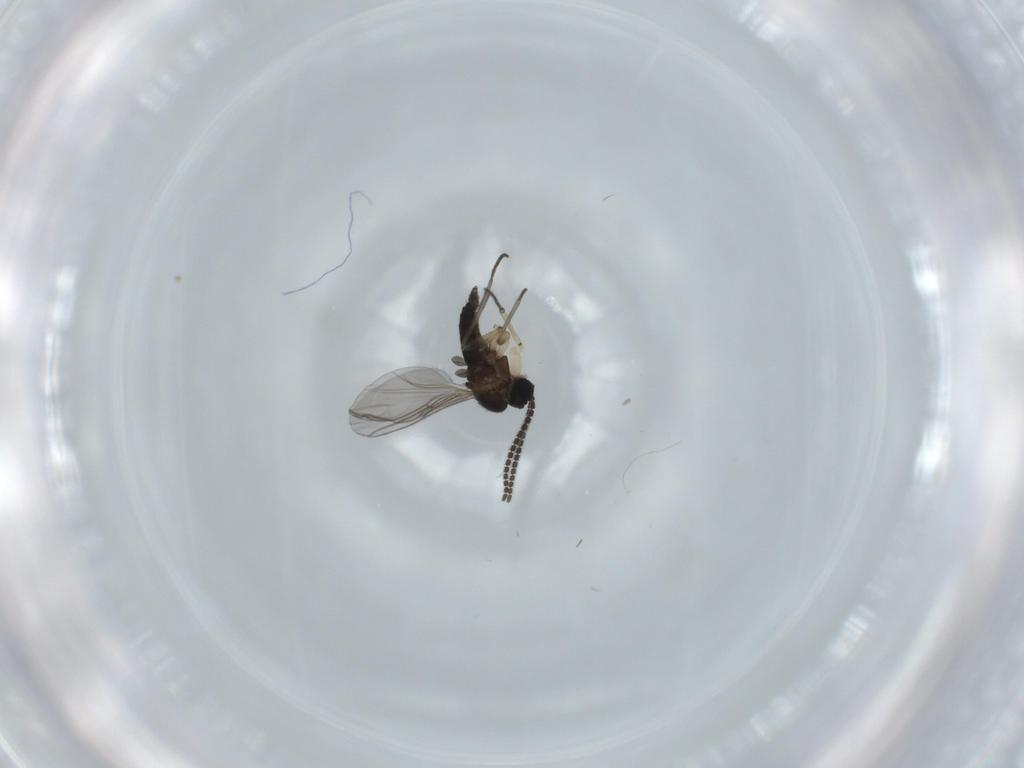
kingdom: Animalia
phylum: Arthropoda
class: Insecta
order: Diptera
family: Sciaridae
